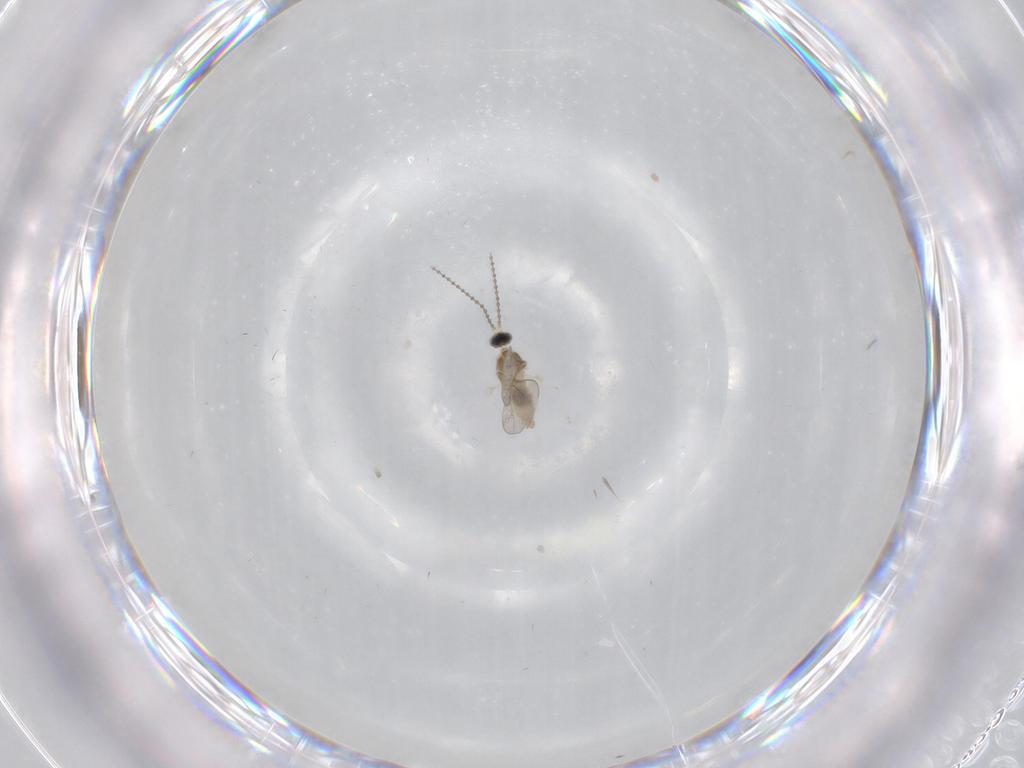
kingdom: Animalia
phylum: Arthropoda
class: Insecta
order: Diptera
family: Cecidomyiidae
